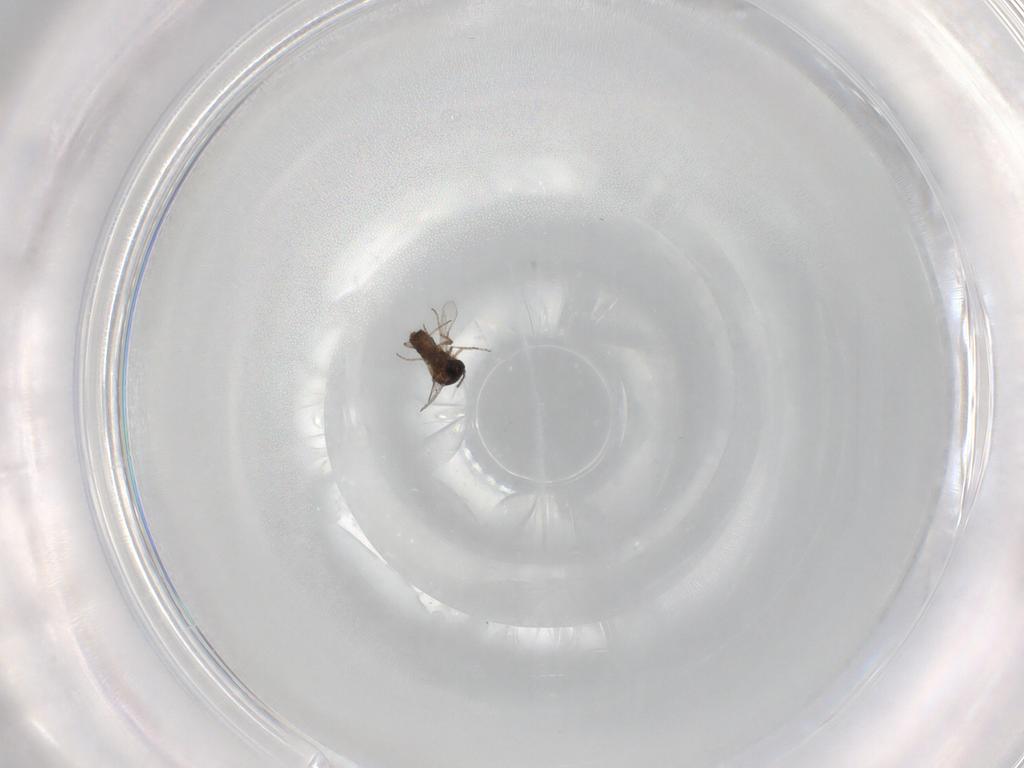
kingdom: Animalia
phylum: Arthropoda
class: Insecta
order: Diptera
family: Ceratopogonidae
